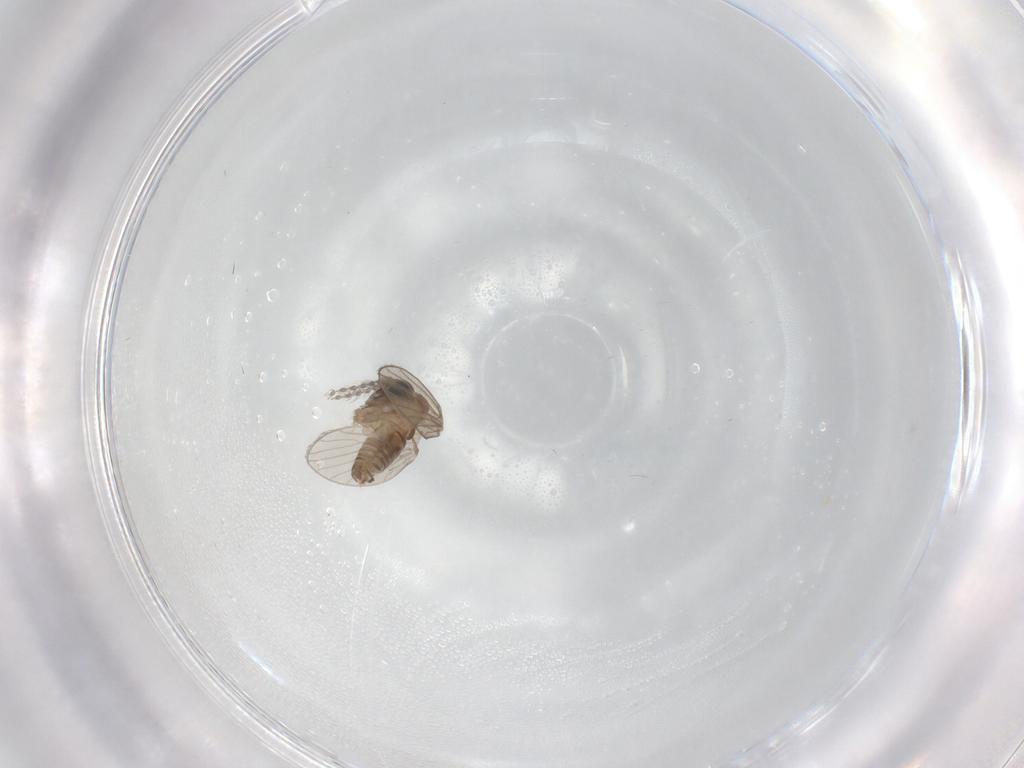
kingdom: Animalia
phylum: Arthropoda
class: Insecta
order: Diptera
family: Psychodidae
